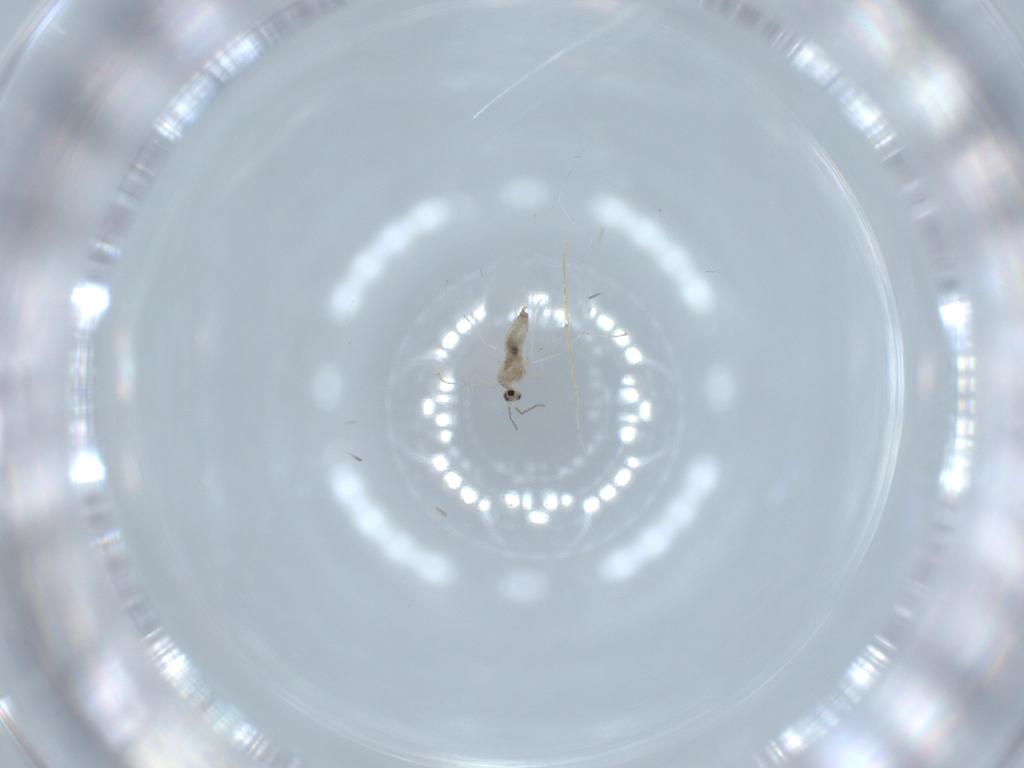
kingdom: Animalia
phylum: Arthropoda
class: Insecta
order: Diptera
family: Cecidomyiidae
